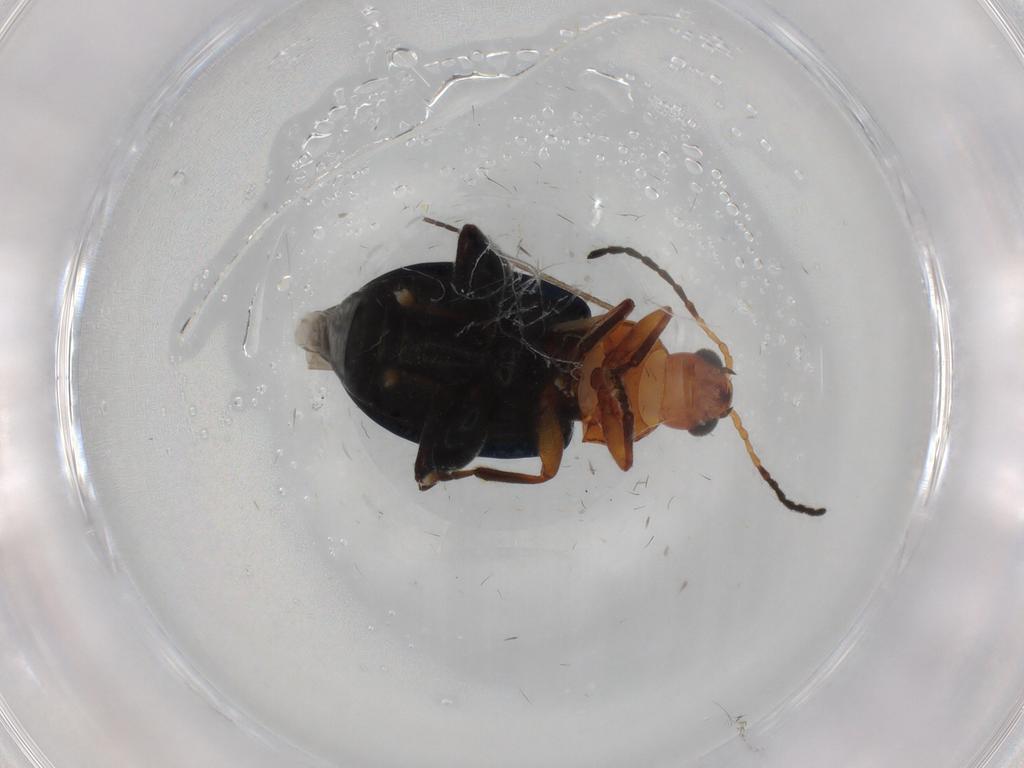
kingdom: Animalia
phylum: Arthropoda
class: Insecta
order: Coleoptera
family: Chrysomelidae
